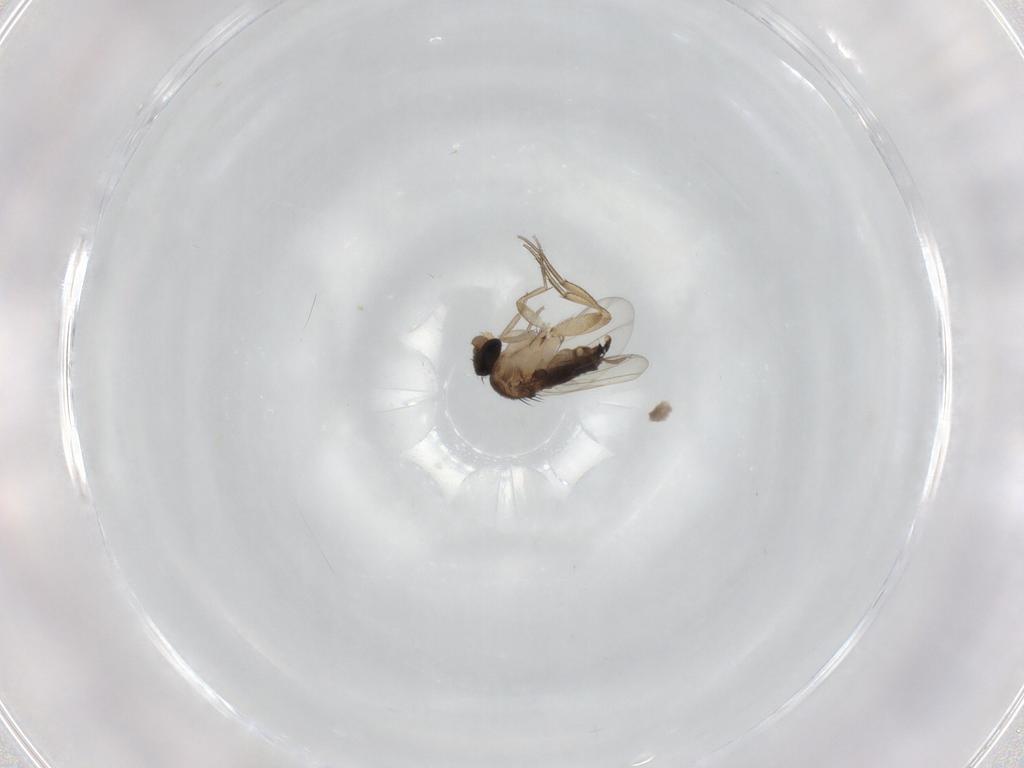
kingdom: Animalia
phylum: Arthropoda
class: Insecta
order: Diptera
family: Phoridae
